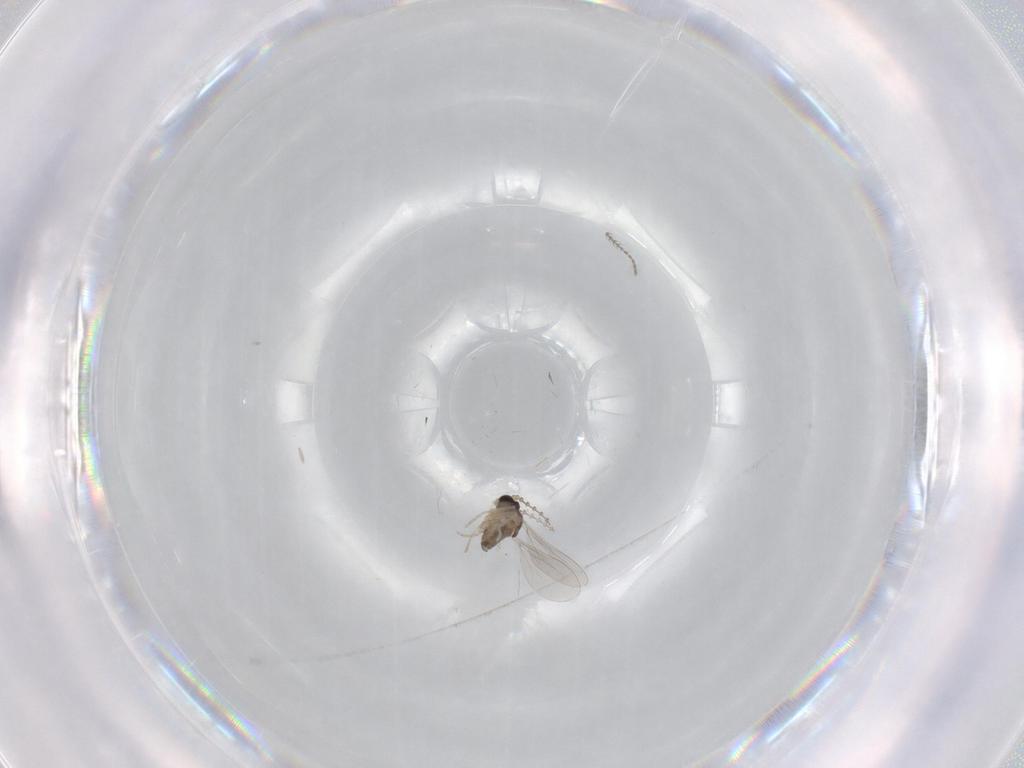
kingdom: Animalia
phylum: Arthropoda
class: Insecta
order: Diptera
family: Cecidomyiidae
